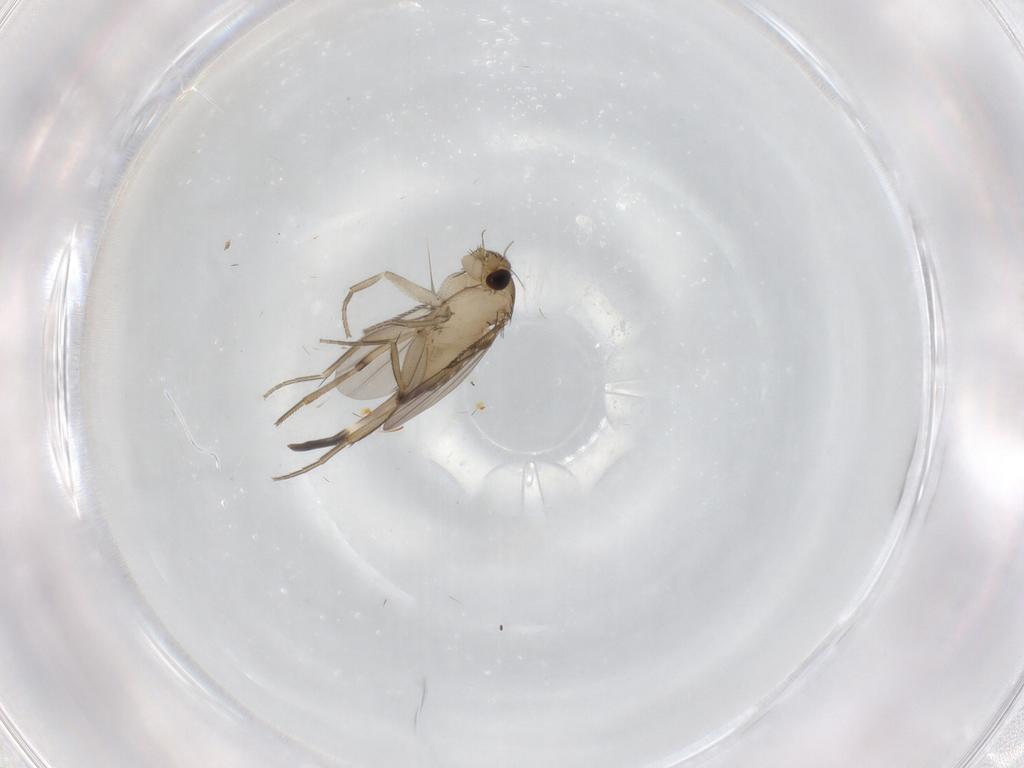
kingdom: Animalia
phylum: Arthropoda
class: Insecta
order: Diptera
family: Phoridae
